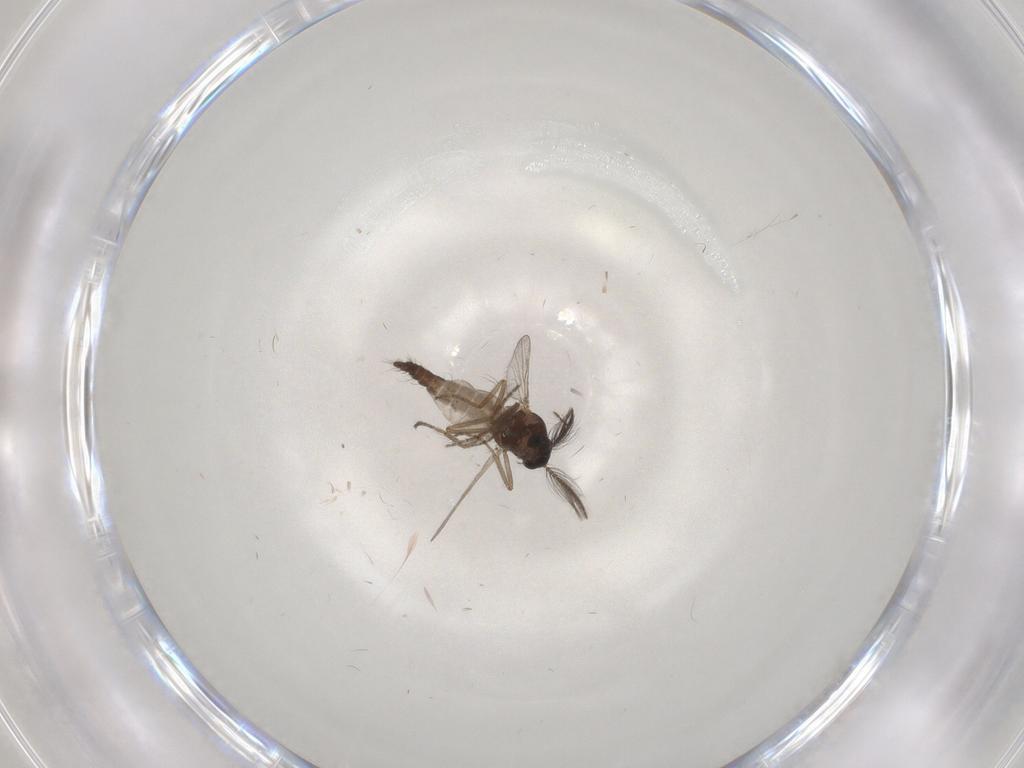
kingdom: Animalia
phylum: Arthropoda
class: Insecta
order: Diptera
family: Ceratopogonidae
